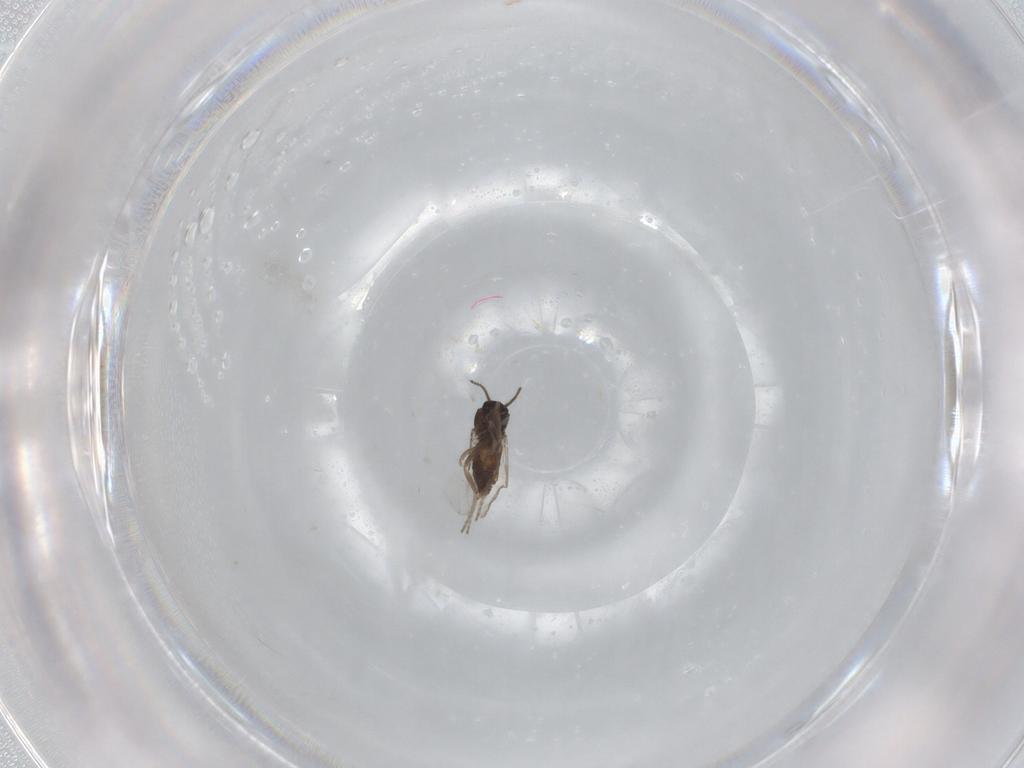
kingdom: Animalia
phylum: Arthropoda
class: Insecta
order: Diptera
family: Ceratopogonidae
